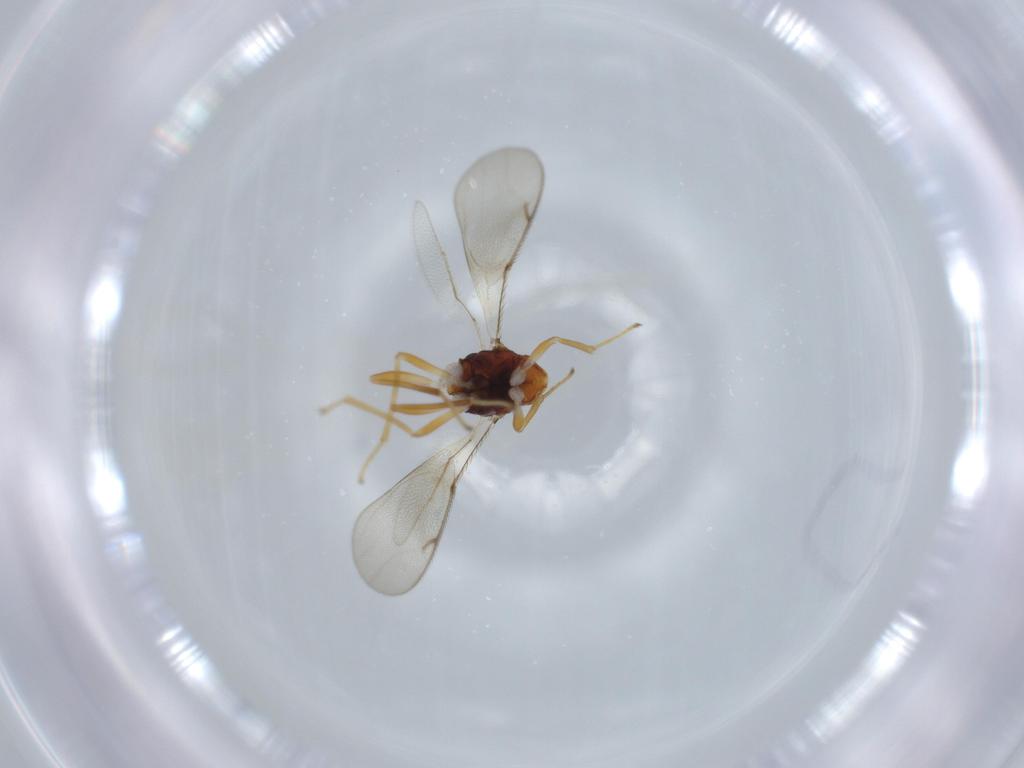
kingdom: Animalia
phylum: Arthropoda
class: Insecta
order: Hymenoptera
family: Diparidae
